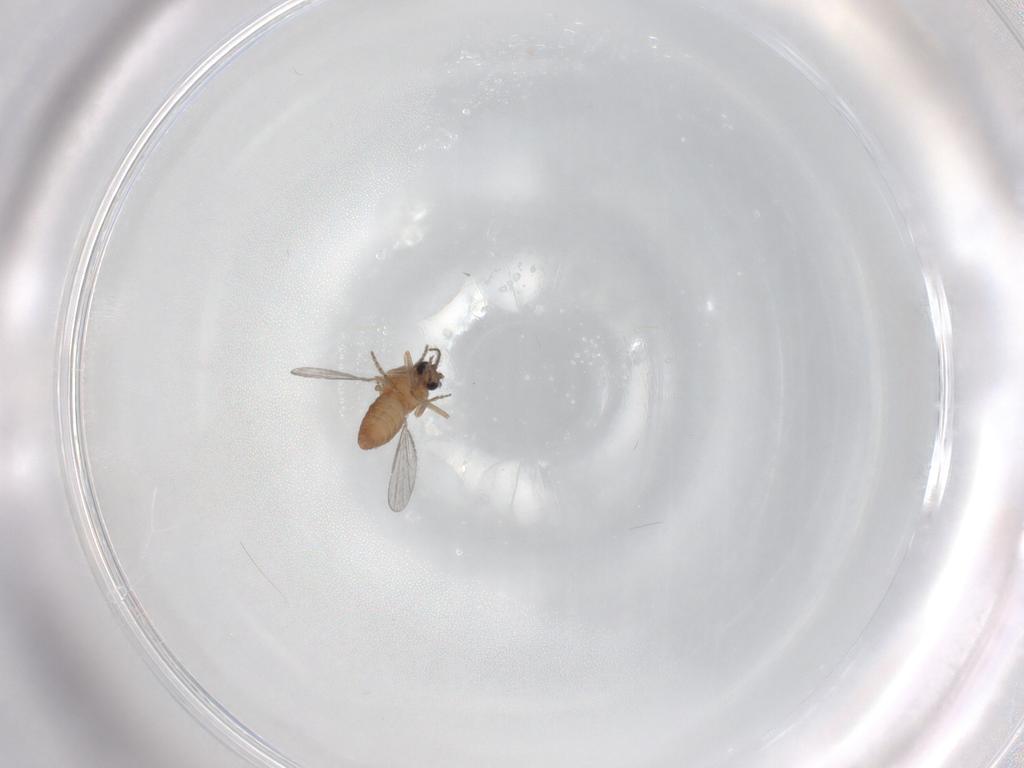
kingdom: Animalia
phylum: Arthropoda
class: Insecta
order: Diptera
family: Ceratopogonidae
